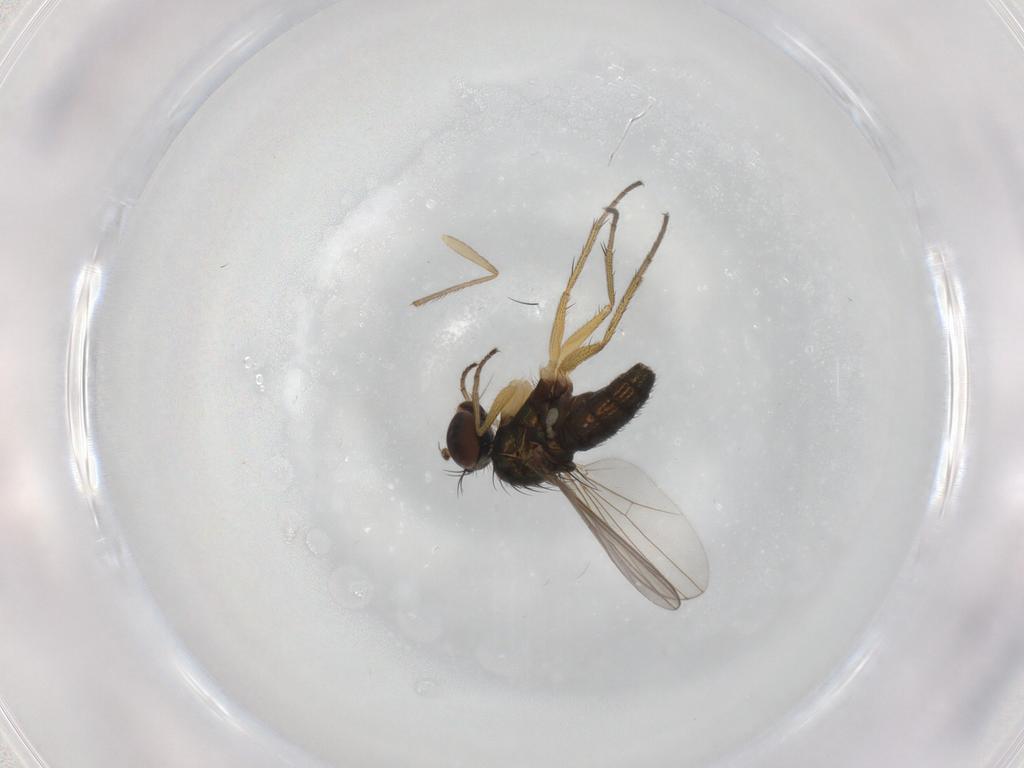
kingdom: Animalia
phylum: Arthropoda
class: Insecta
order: Diptera
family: Chironomidae
